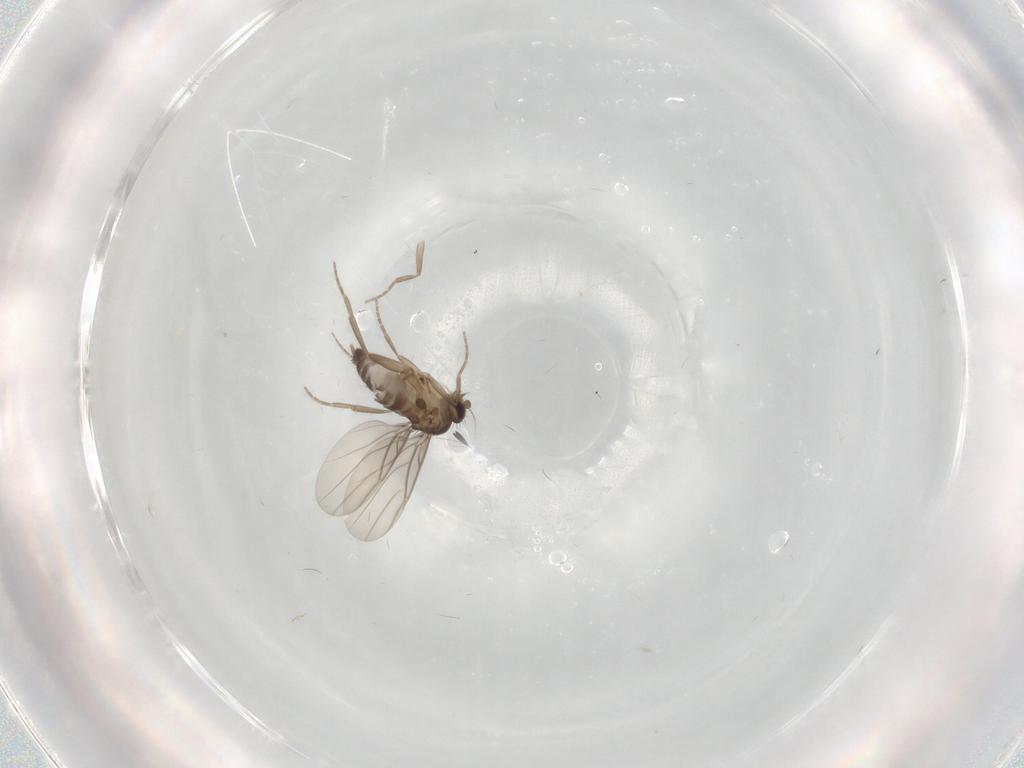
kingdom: Animalia
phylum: Arthropoda
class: Insecta
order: Diptera
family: Phoridae
